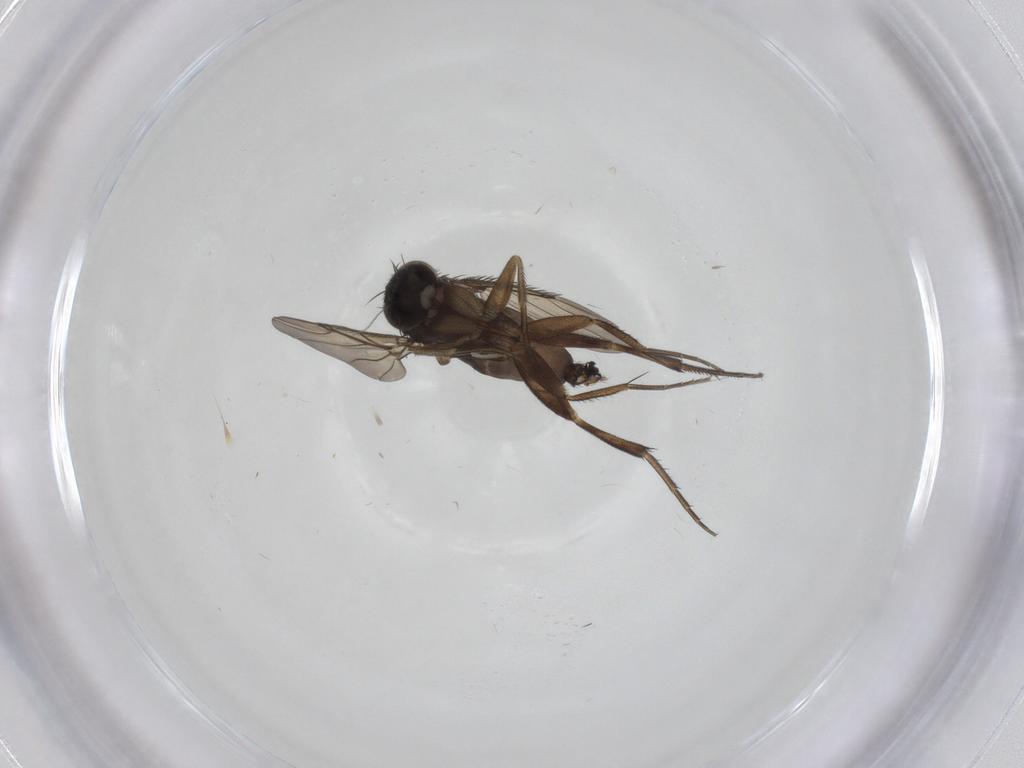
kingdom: Animalia
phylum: Arthropoda
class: Insecta
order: Diptera
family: Phoridae
